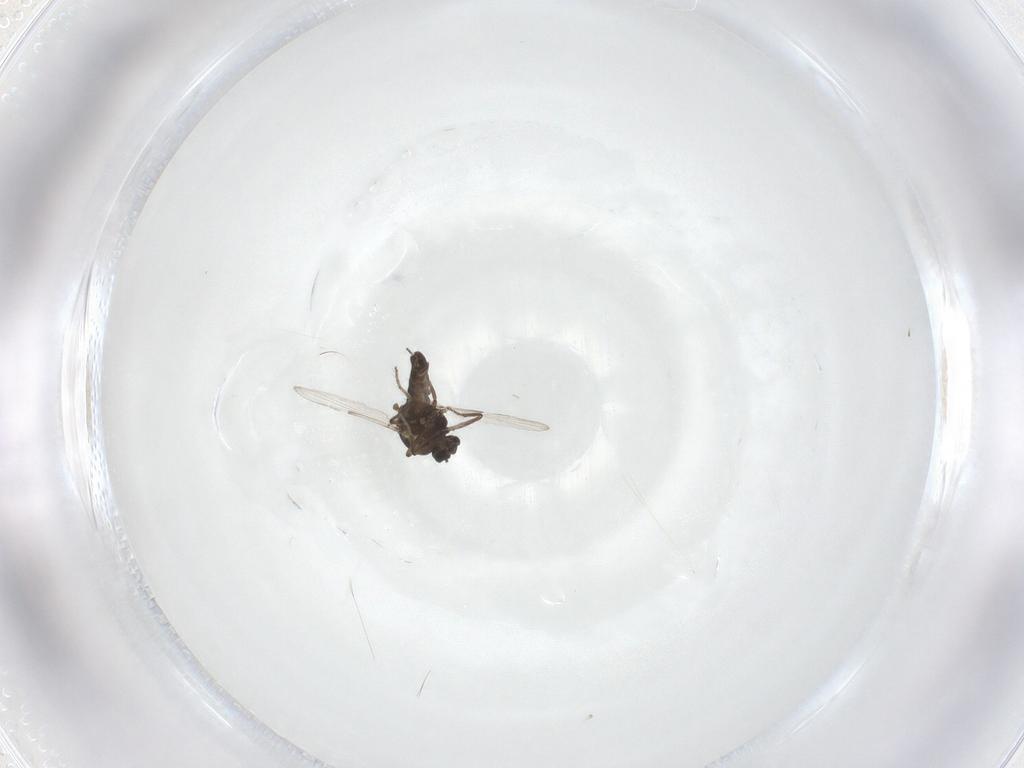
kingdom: Animalia
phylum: Arthropoda
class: Insecta
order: Diptera
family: Ceratopogonidae
